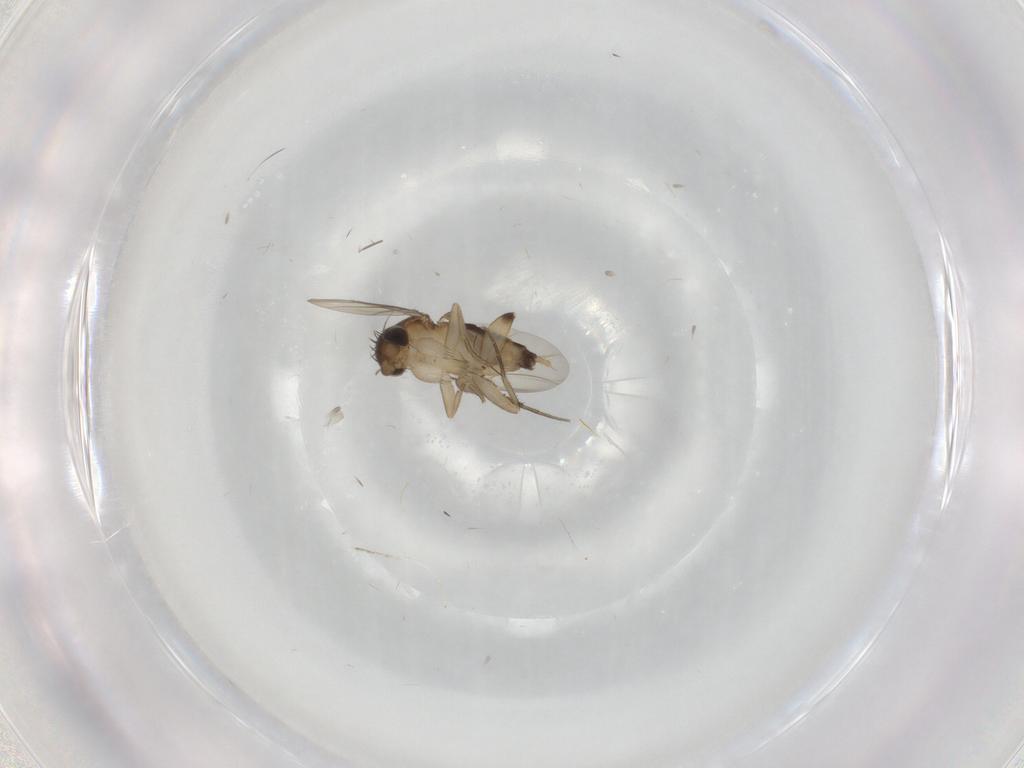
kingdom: Animalia
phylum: Arthropoda
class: Insecta
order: Diptera
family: Phoridae
